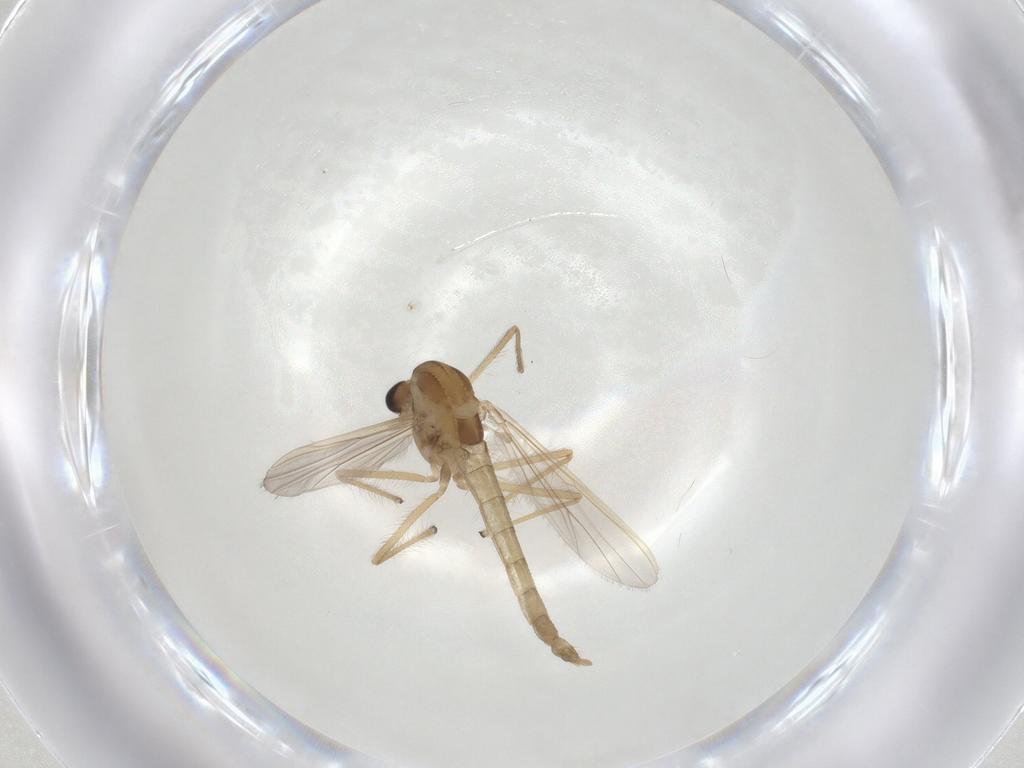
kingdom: Animalia
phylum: Arthropoda
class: Insecta
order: Diptera
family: Chironomidae
